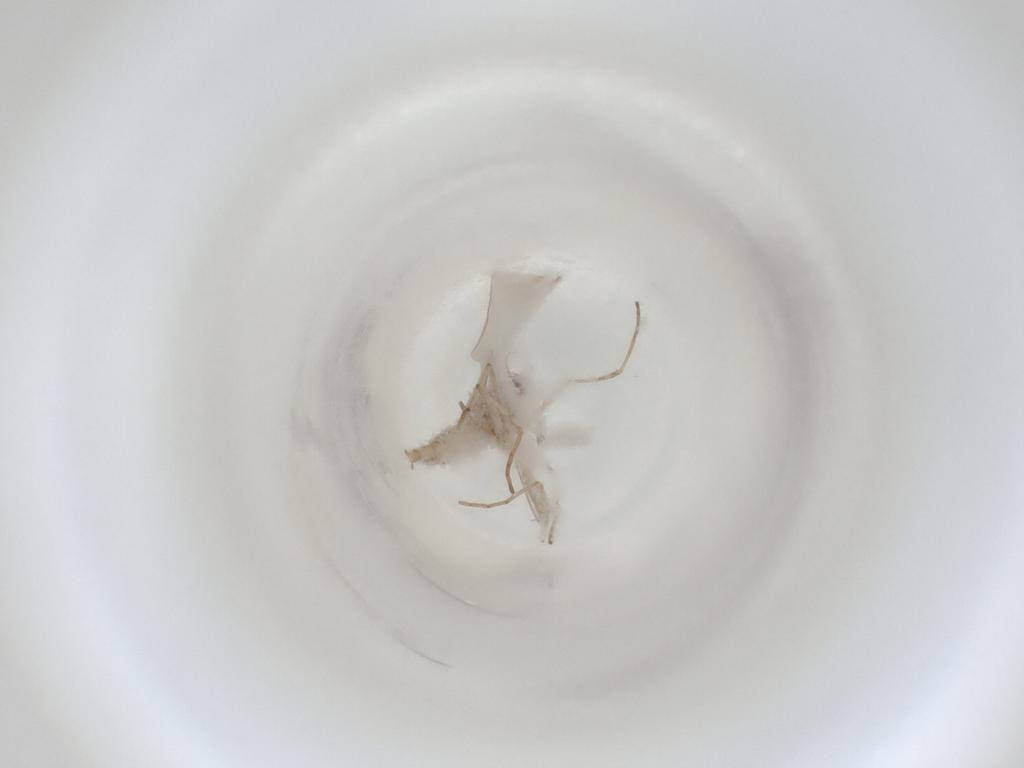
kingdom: Animalia
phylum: Arthropoda
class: Insecta
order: Diptera
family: Cecidomyiidae
